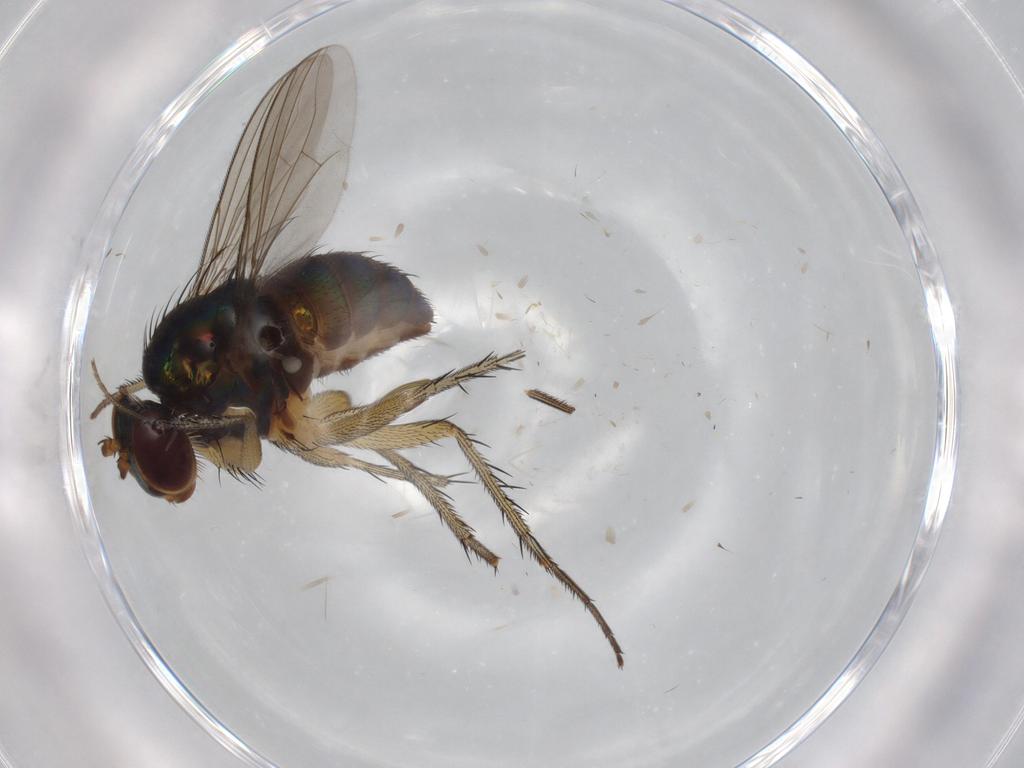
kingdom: Animalia
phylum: Arthropoda
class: Insecta
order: Diptera
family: Dolichopodidae
